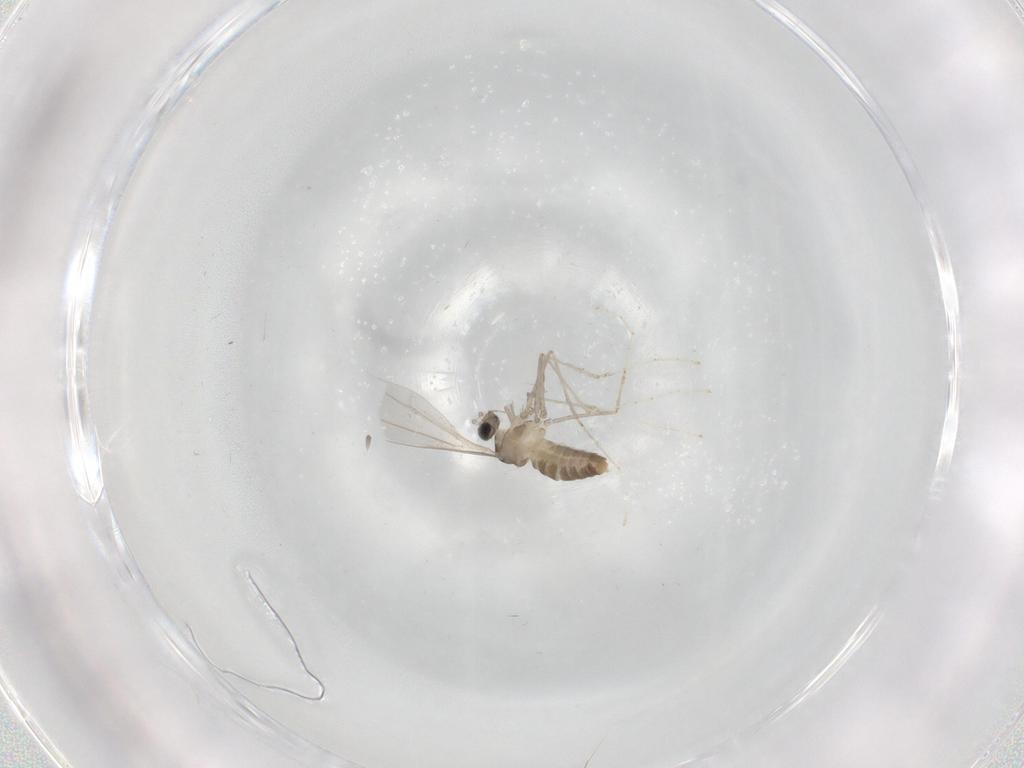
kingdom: Animalia
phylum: Arthropoda
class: Insecta
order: Diptera
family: Cecidomyiidae
